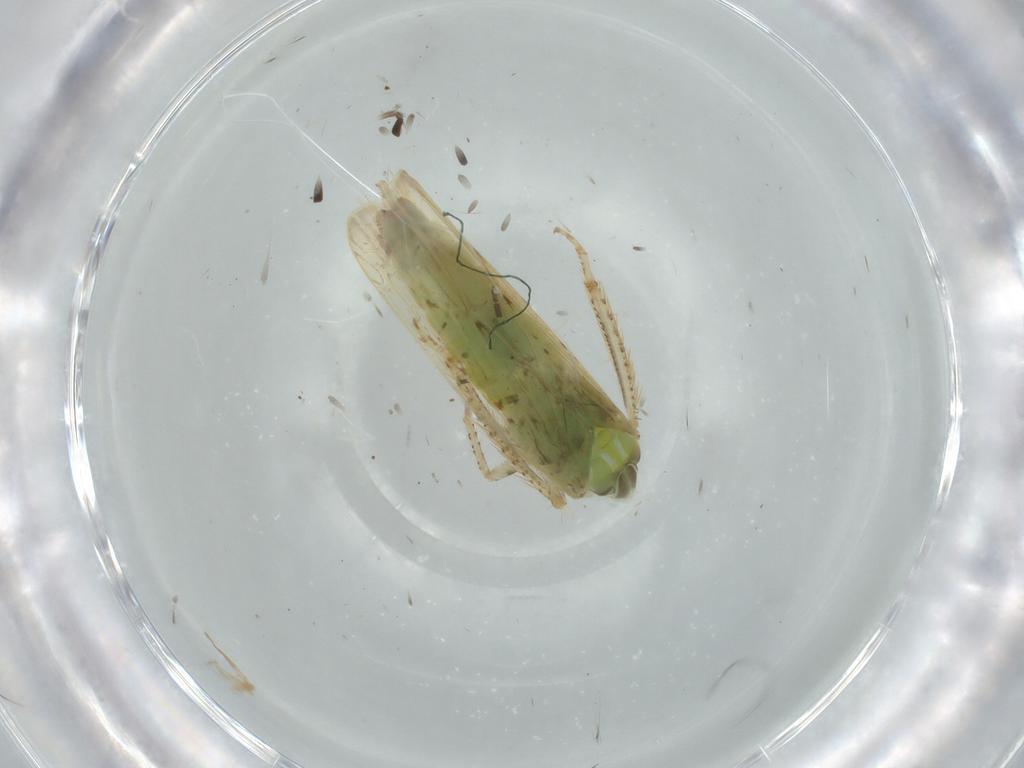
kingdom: Animalia
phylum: Arthropoda
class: Insecta
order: Hemiptera
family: Cicadellidae
